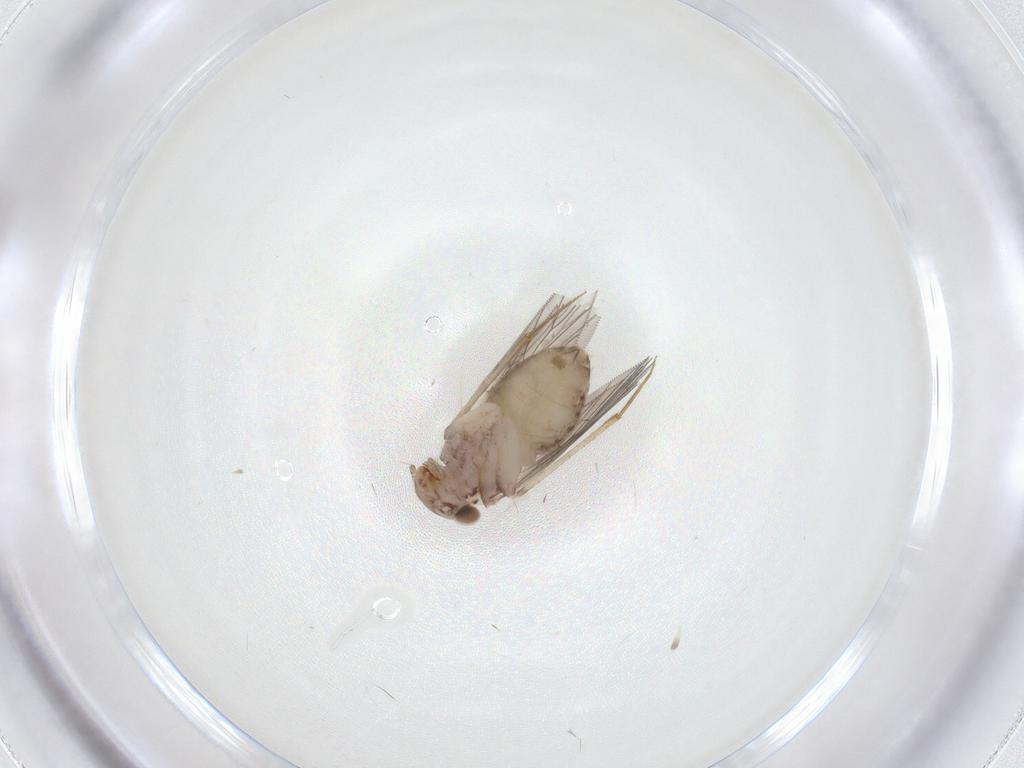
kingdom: Animalia
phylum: Arthropoda
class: Insecta
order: Psocodea
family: Lepidopsocidae
